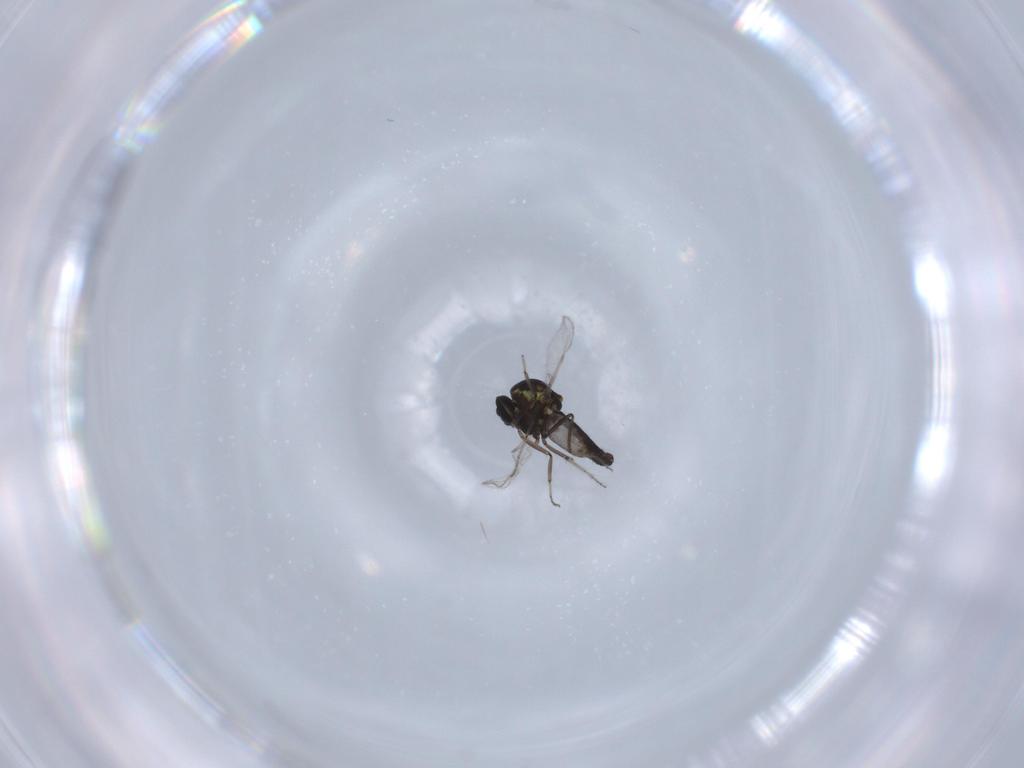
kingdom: Animalia
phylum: Arthropoda
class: Insecta
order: Diptera
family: Ceratopogonidae
